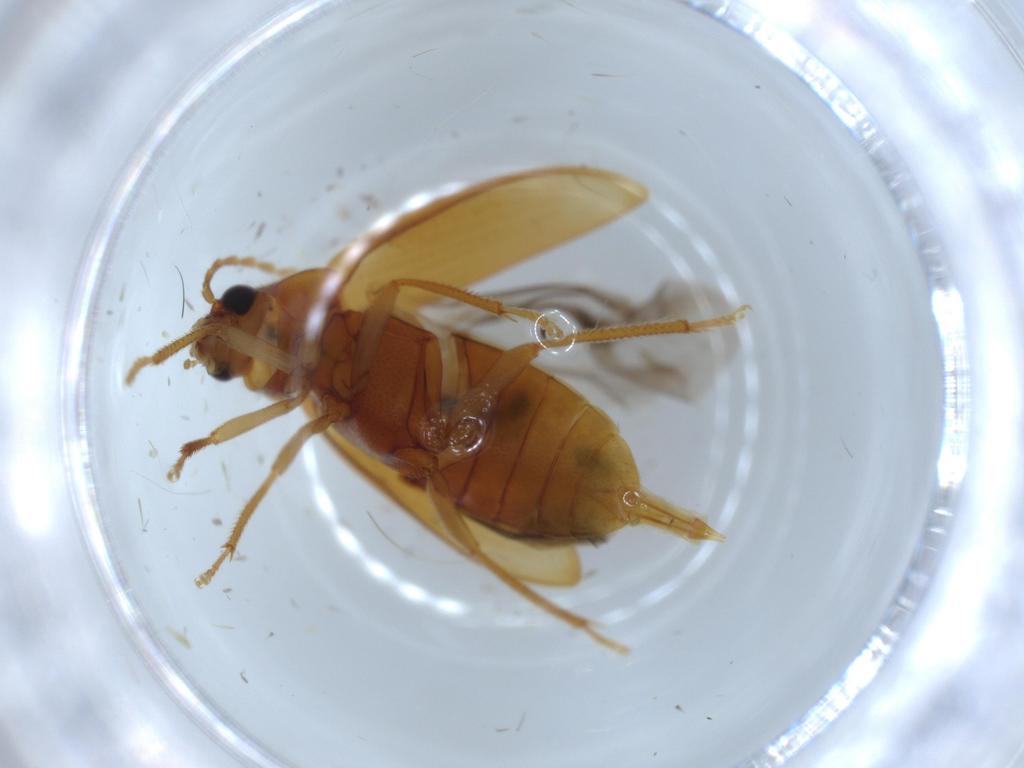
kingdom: Animalia
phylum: Arthropoda
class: Insecta
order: Coleoptera
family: Ptilodactylidae
